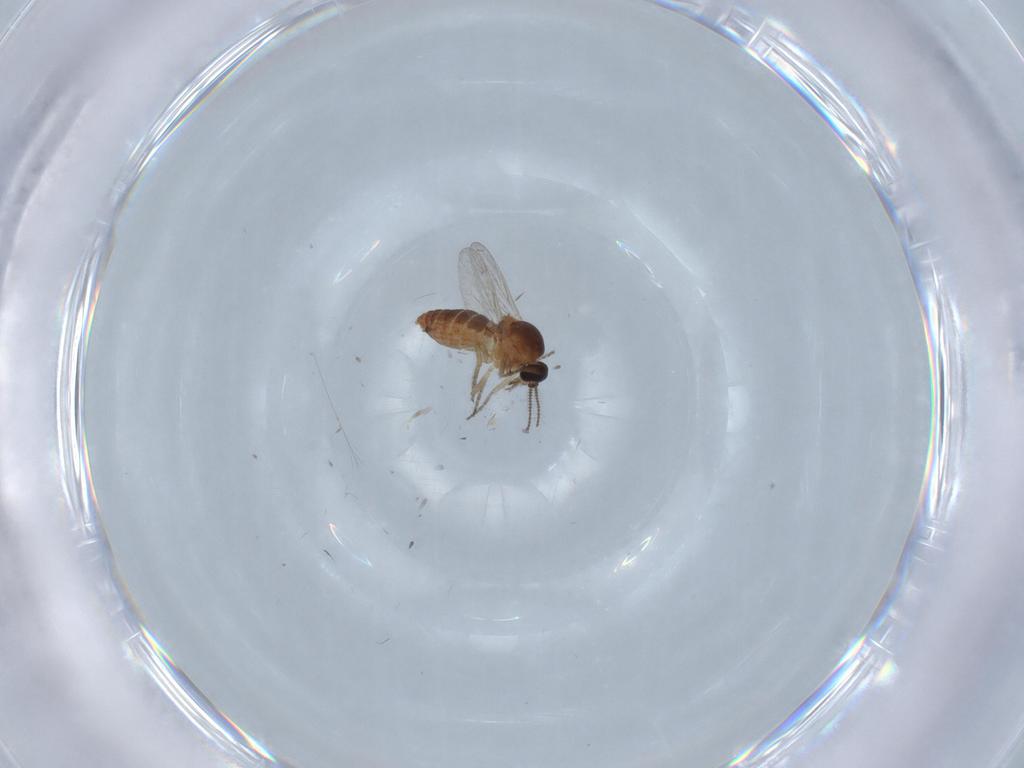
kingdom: Animalia
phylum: Arthropoda
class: Insecta
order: Diptera
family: Ceratopogonidae
